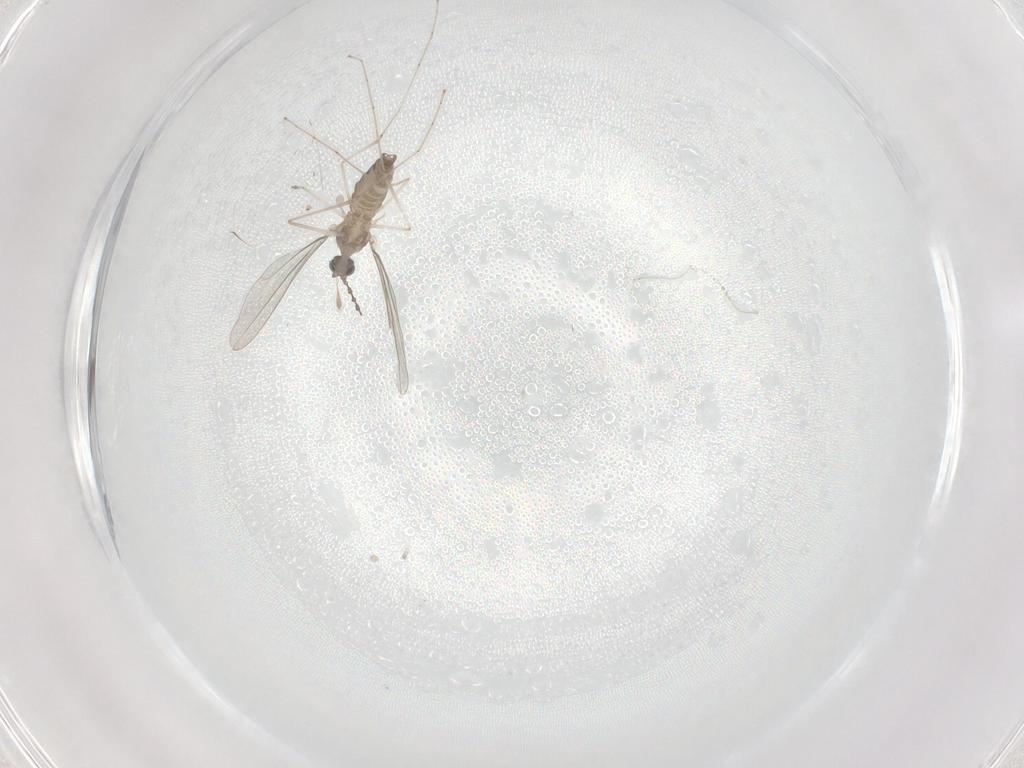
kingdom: Animalia
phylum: Arthropoda
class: Insecta
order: Diptera
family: Cecidomyiidae
